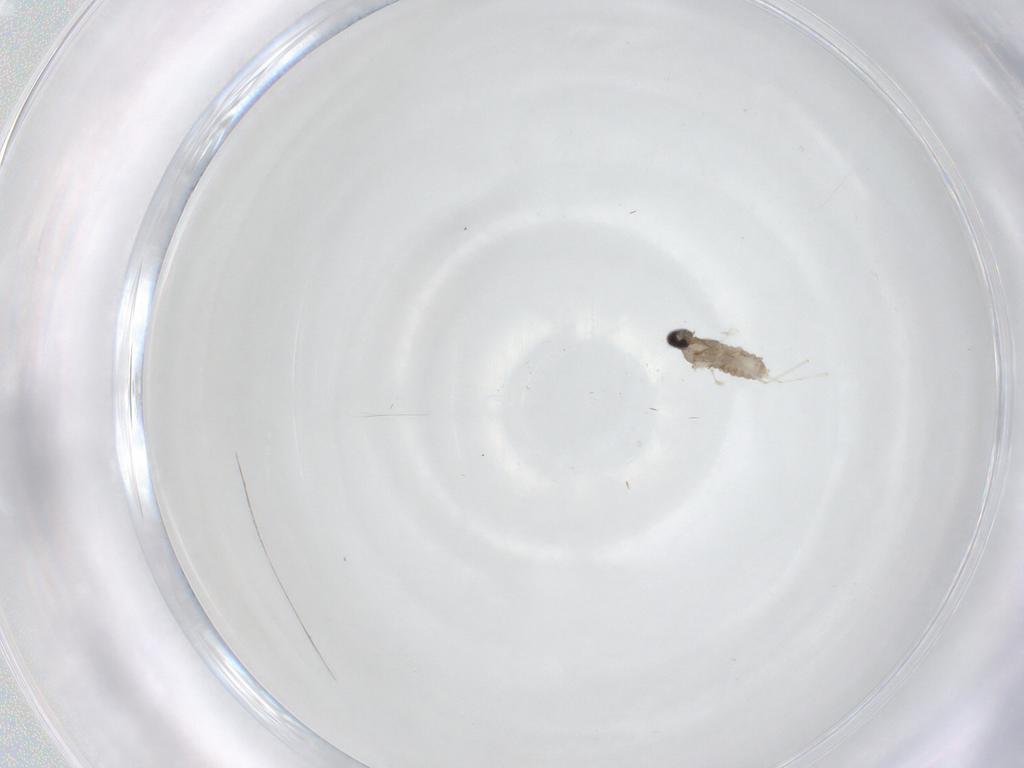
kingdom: Animalia
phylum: Arthropoda
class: Insecta
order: Diptera
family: Cecidomyiidae
